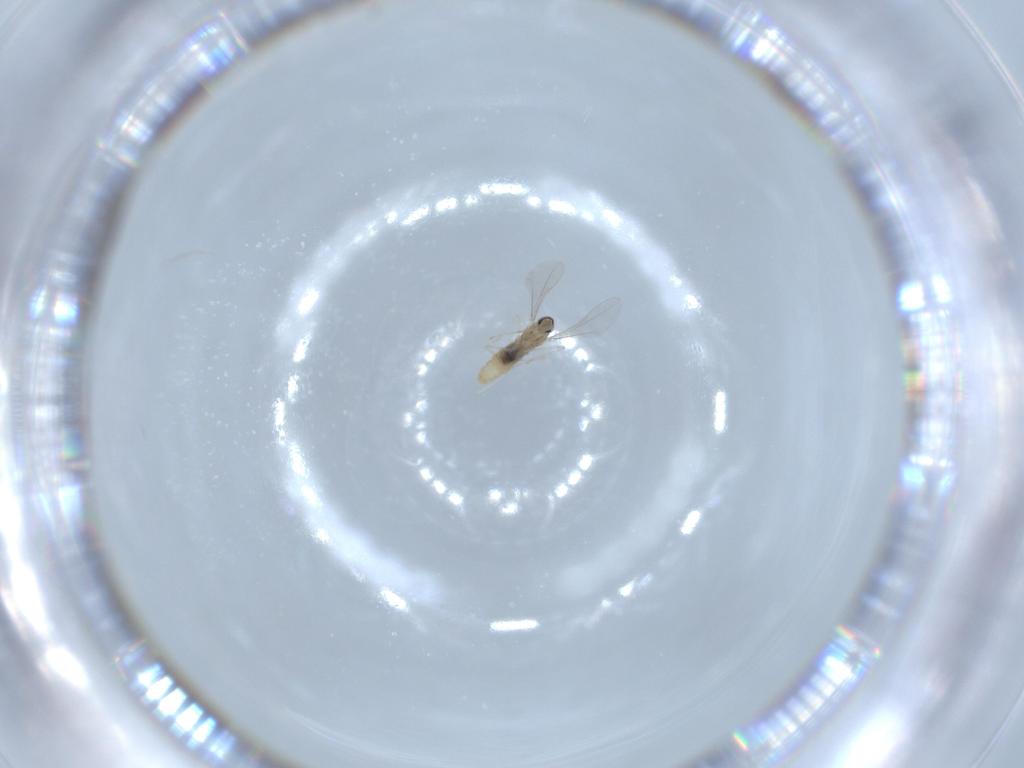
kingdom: Animalia
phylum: Arthropoda
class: Insecta
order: Diptera
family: Cecidomyiidae
